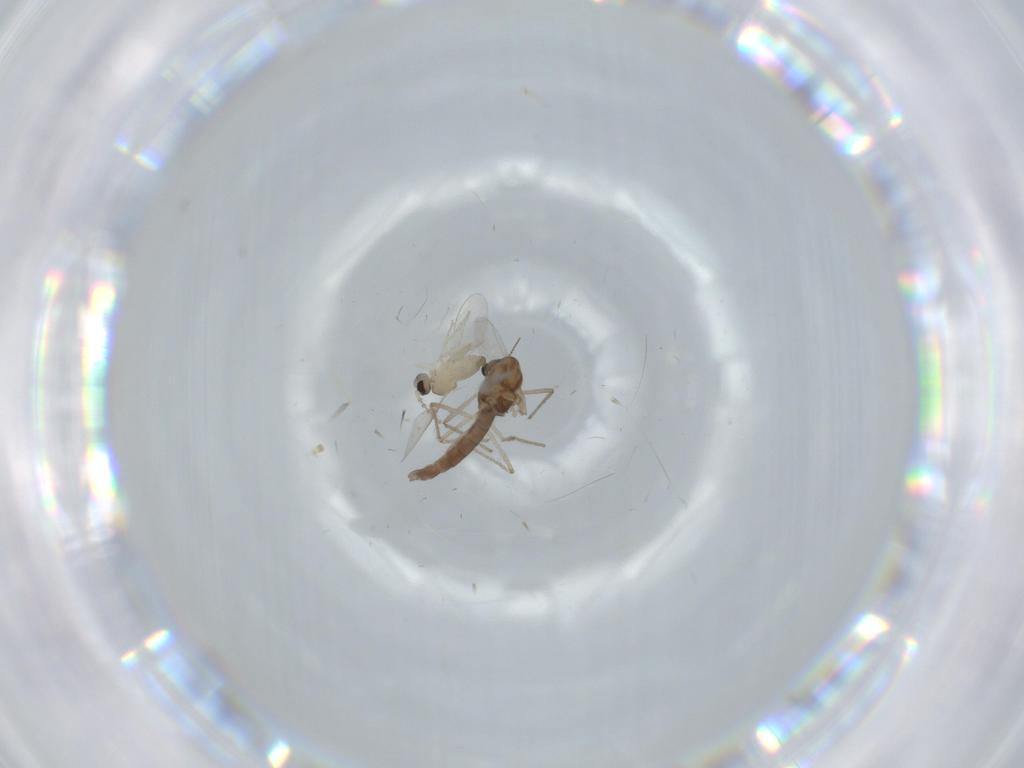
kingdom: Animalia
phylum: Arthropoda
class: Insecta
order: Diptera
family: Chironomidae
